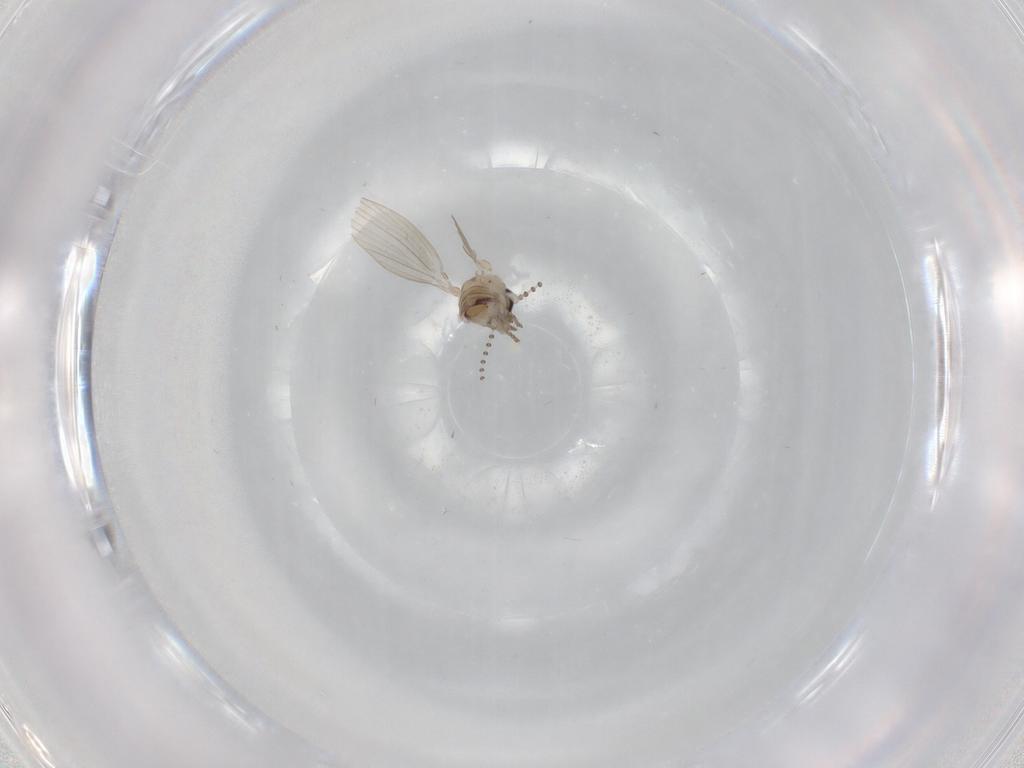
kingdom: Animalia
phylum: Arthropoda
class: Insecta
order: Diptera
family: Psychodidae
